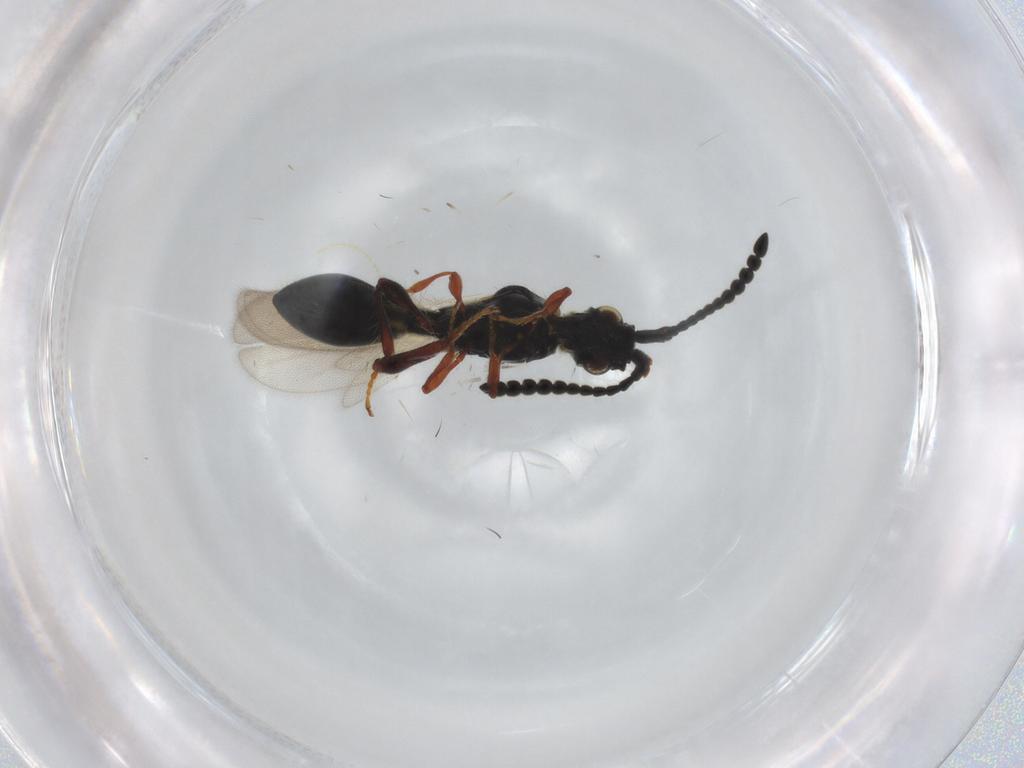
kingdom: Animalia
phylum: Arthropoda
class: Insecta
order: Hymenoptera
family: Diapriidae
